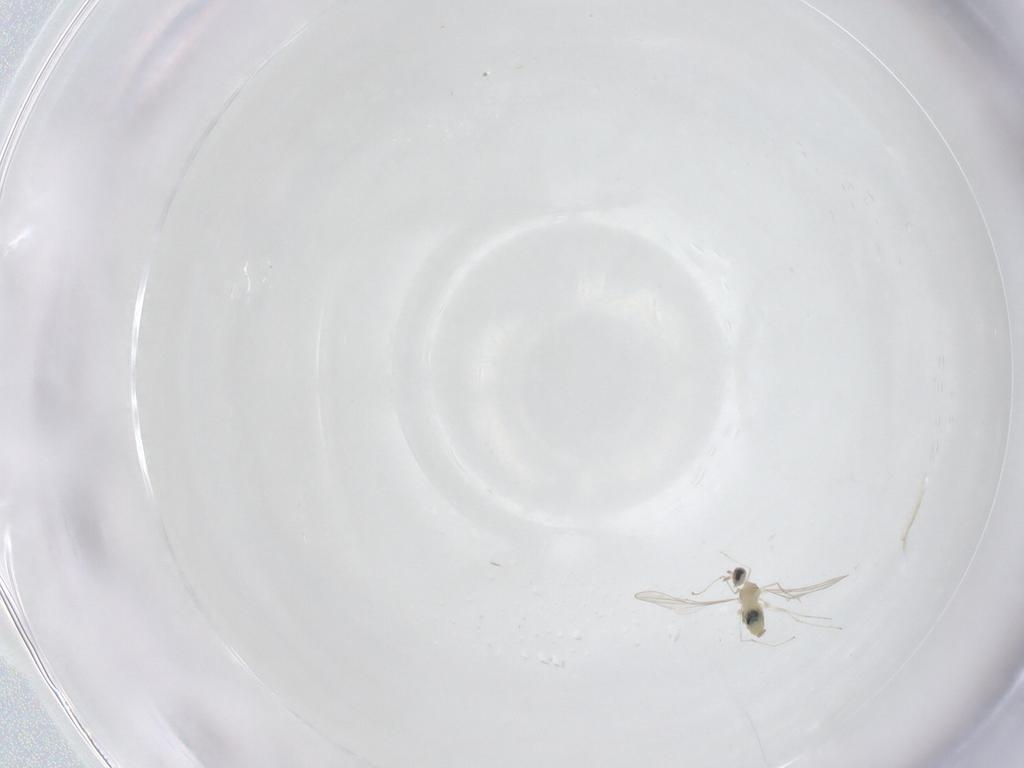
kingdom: Animalia
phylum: Arthropoda
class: Insecta
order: Diptera
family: Cecidomyiidae
